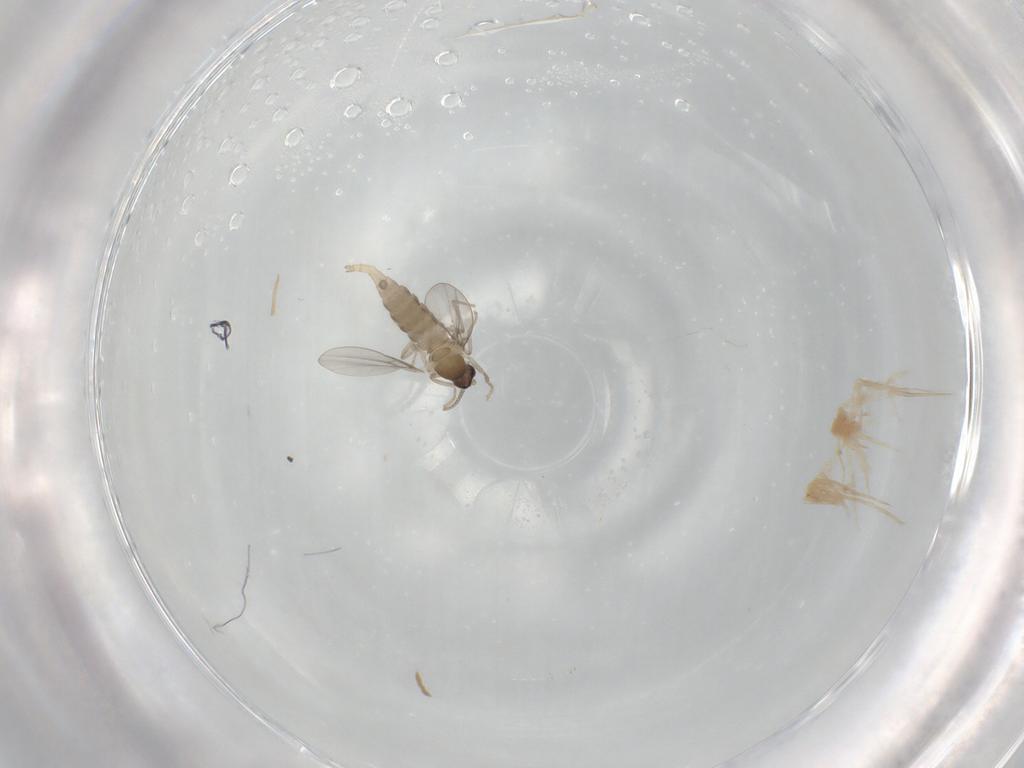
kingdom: Animalia
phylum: Arthropoda
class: Insecta
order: Diptera
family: Cecidomyiidae
